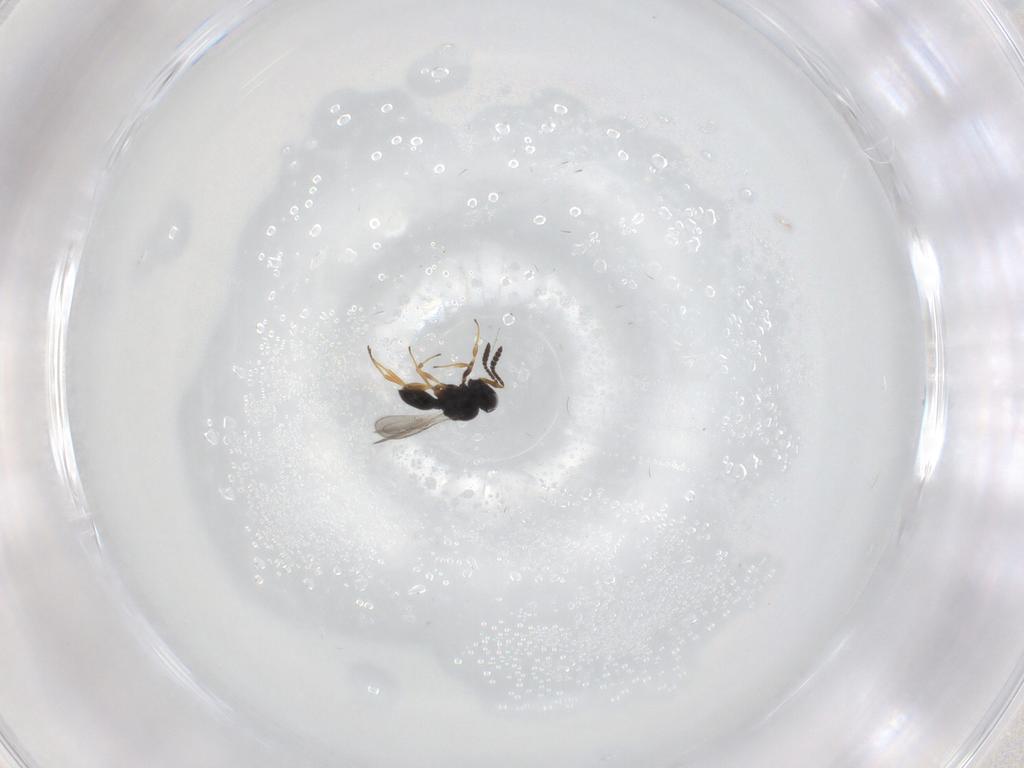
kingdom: Animalia
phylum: Arthropoda
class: Insecta
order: Hymenoptera
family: Scelionidae
